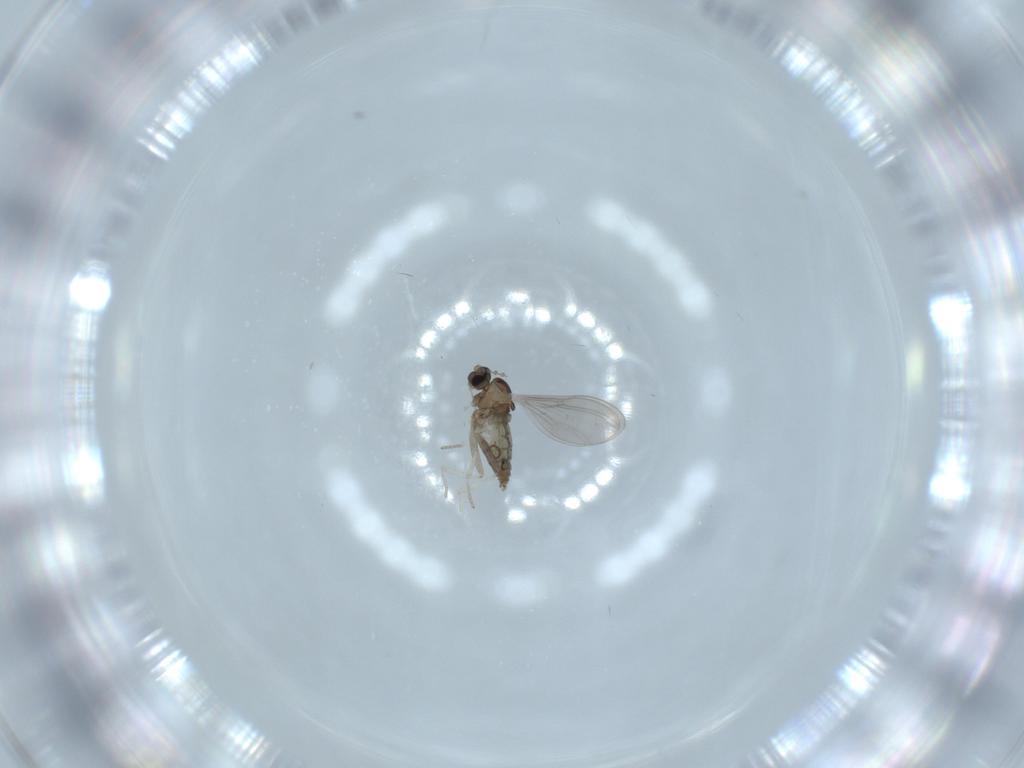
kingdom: Animalia
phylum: Arthropoda
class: Insecta
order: Diptera
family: Cecidomyiidae
